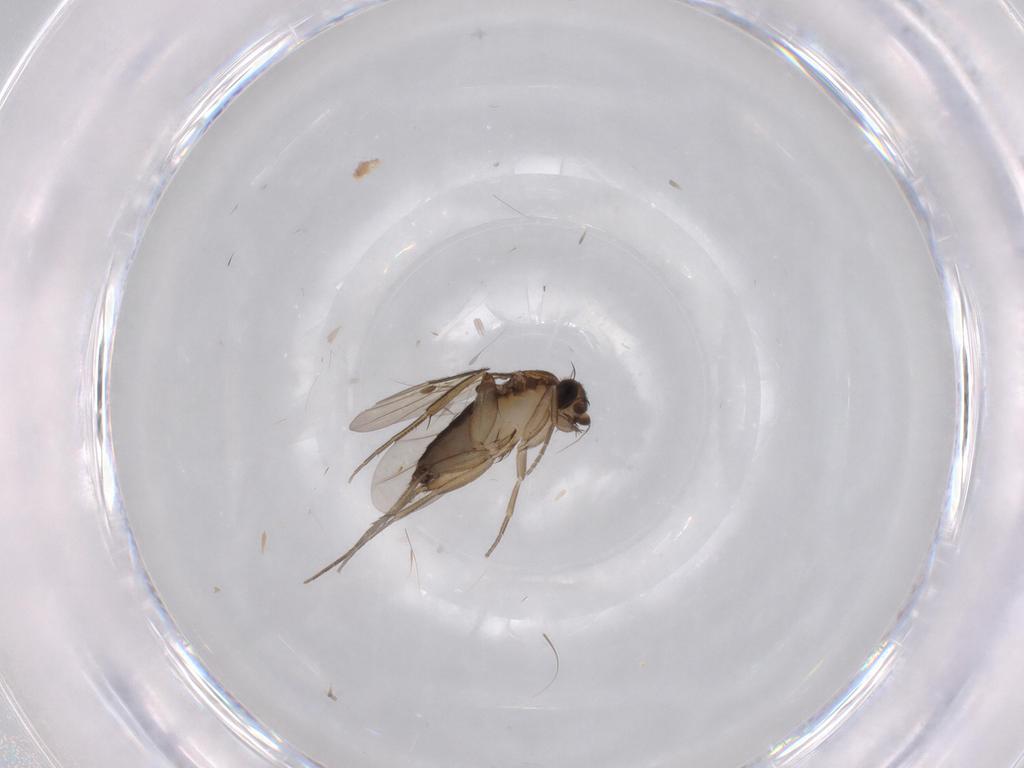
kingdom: Animalia
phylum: Arthropoda
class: Insecta
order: Diptera
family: Phoridae
